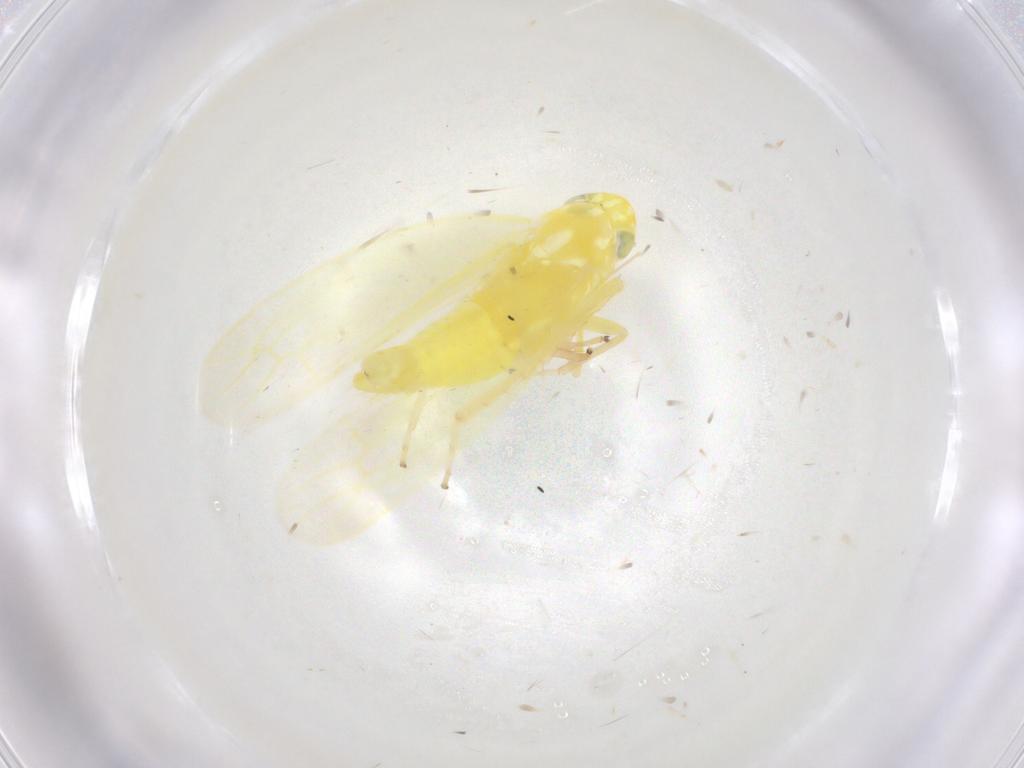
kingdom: Animalia
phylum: Arthropoda
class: Insecta
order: Hemiptera
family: Cicadellidae
